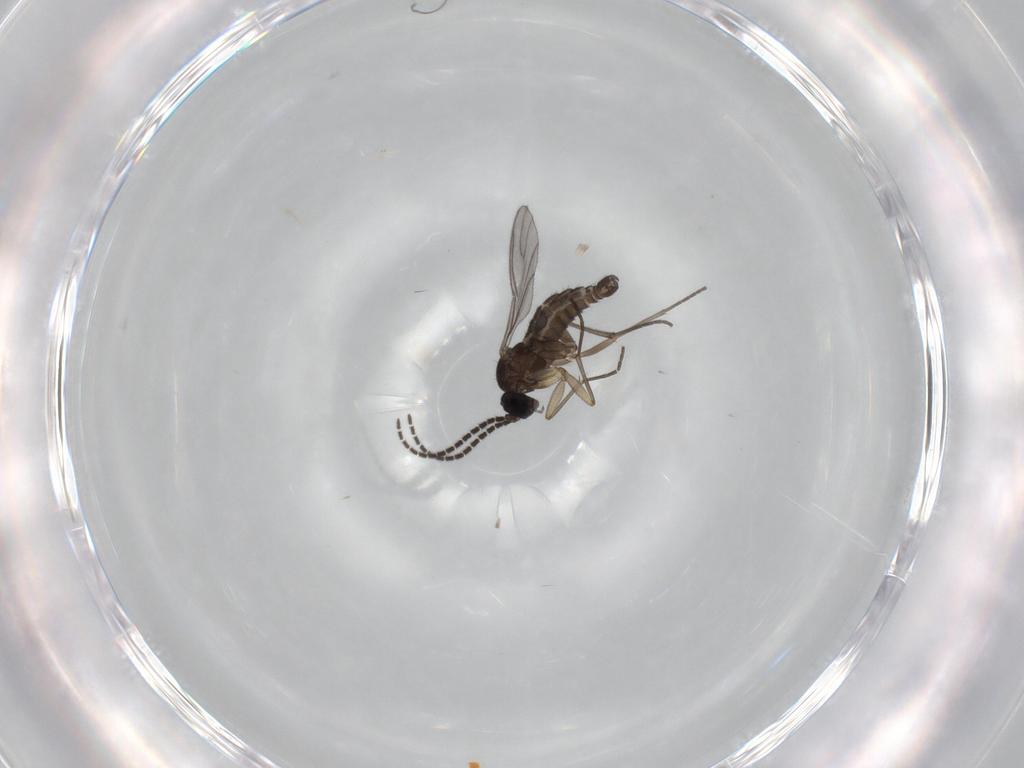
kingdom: Animalia
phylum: Arthropoda
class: Insecta
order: Diptera
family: Sciaridae
